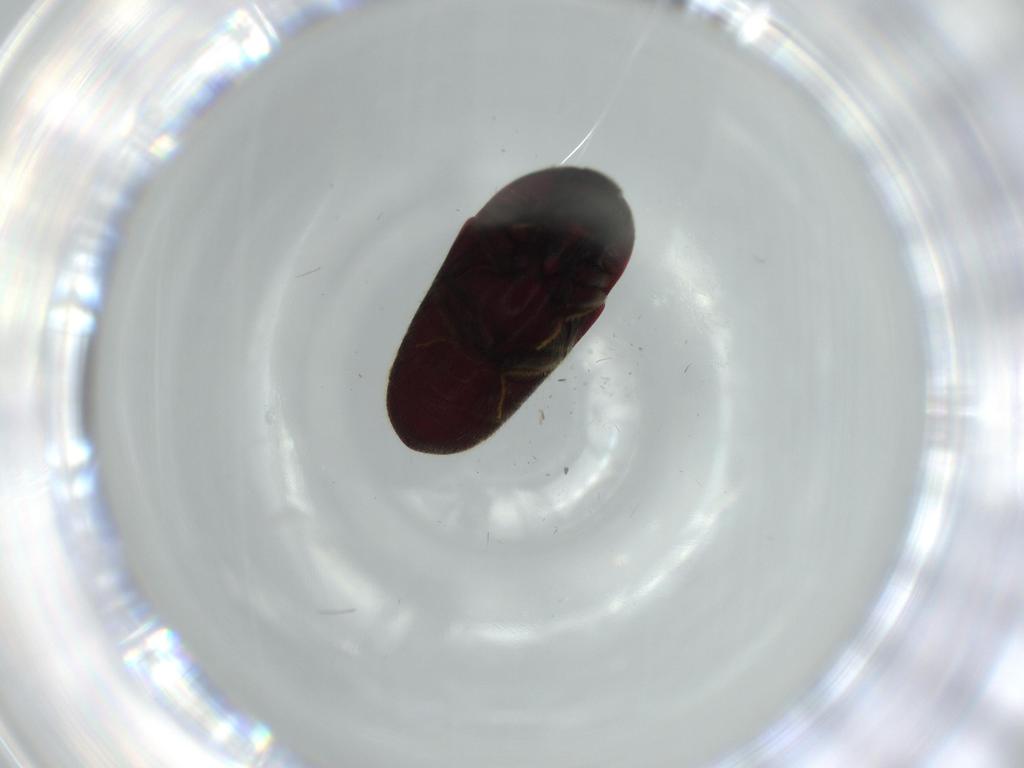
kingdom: Animalia
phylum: Arthropoda
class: Insecta
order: Coleoptera
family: Throscidae
